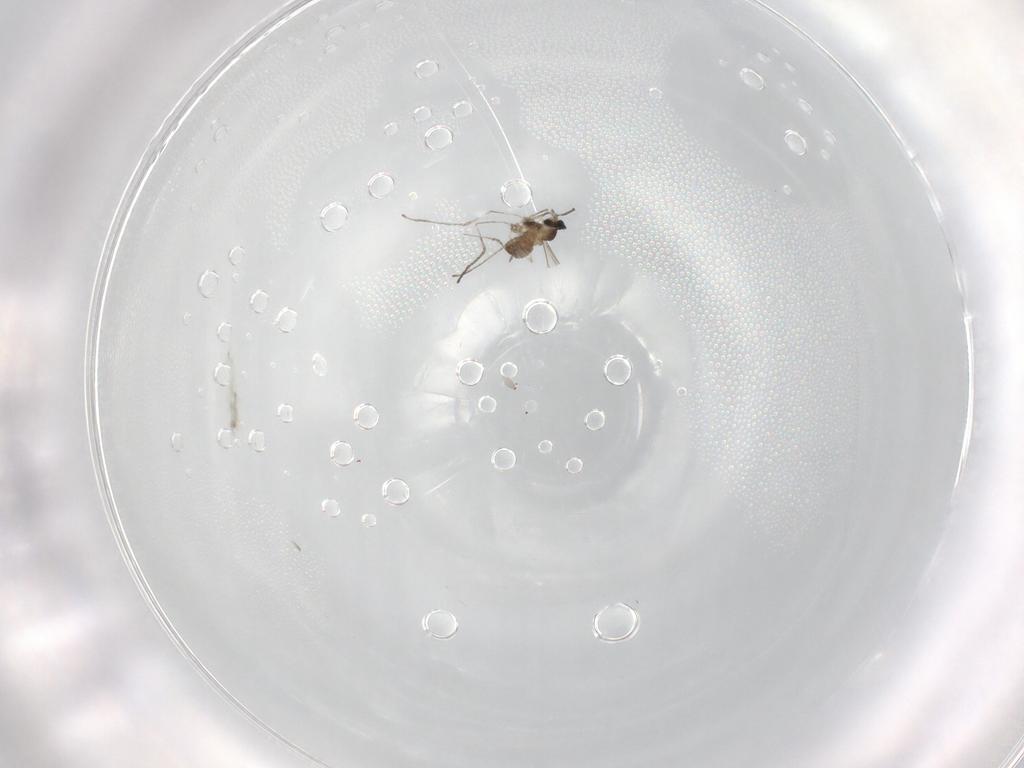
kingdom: Animalia
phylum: Arthropoda
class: Insecta
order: Diptera
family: Cecidomyiidae
